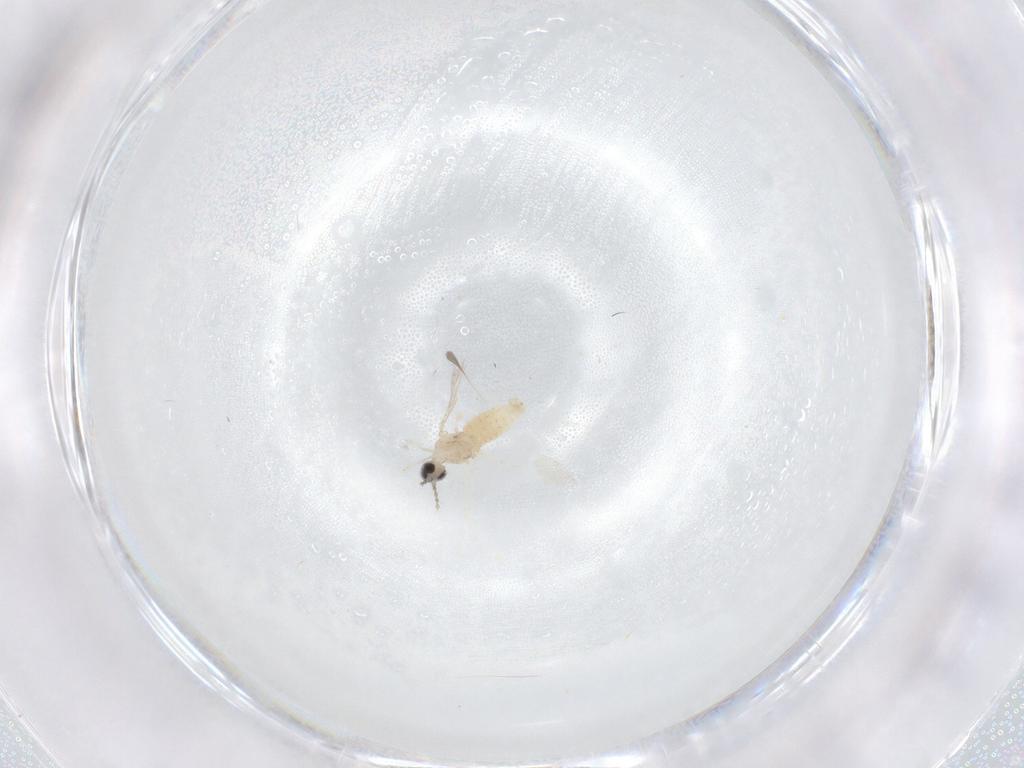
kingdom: Animalia
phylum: Arthropoda
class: Insecta
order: Diptera
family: Cecidomyiidae
